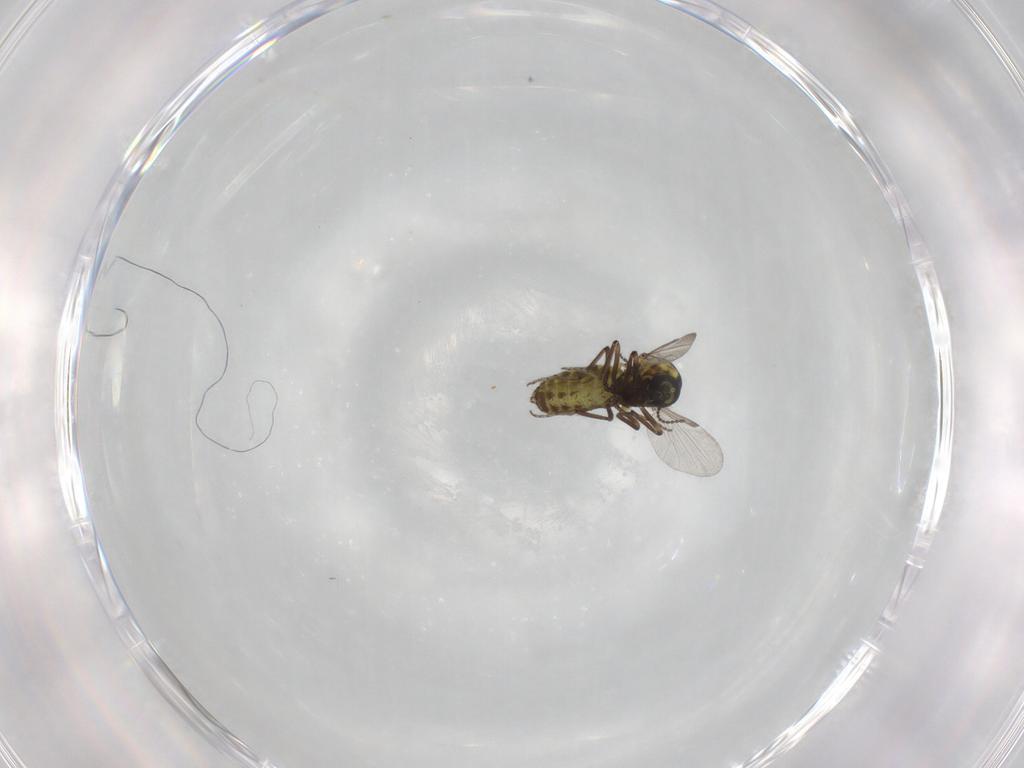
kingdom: Animalia
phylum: Arthropoda
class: Insecta
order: Diptera
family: Ceratopogonidae
